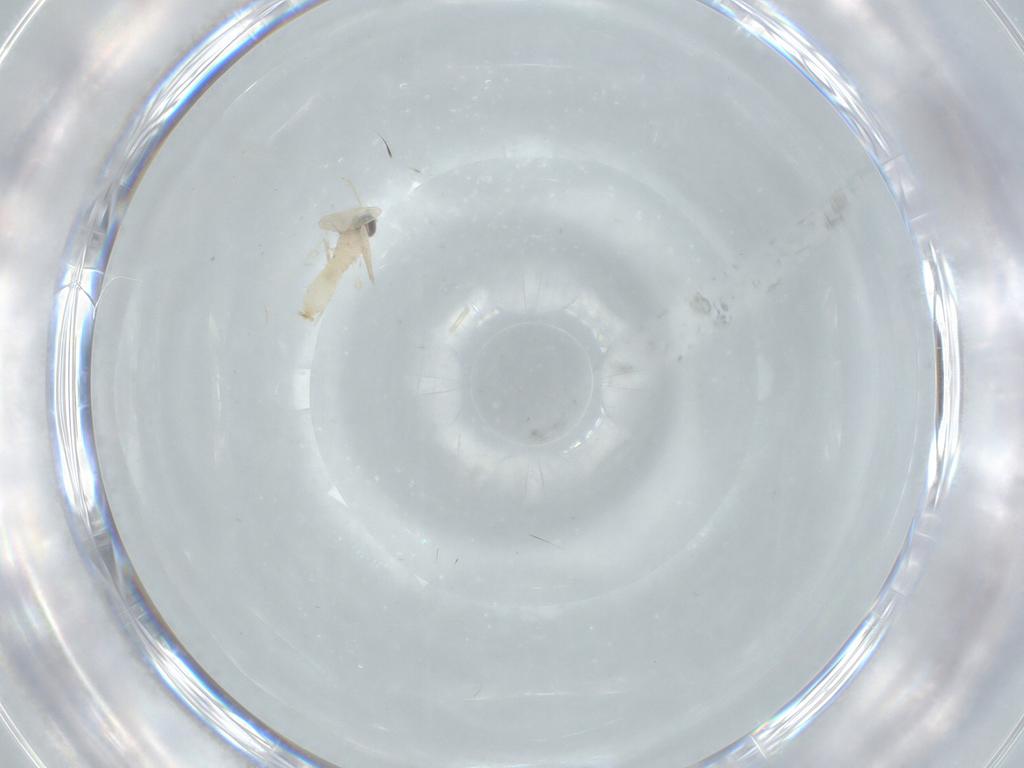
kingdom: Animalia
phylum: Arthropoda
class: Insecta
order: Diptera
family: Cecidomyiidae
